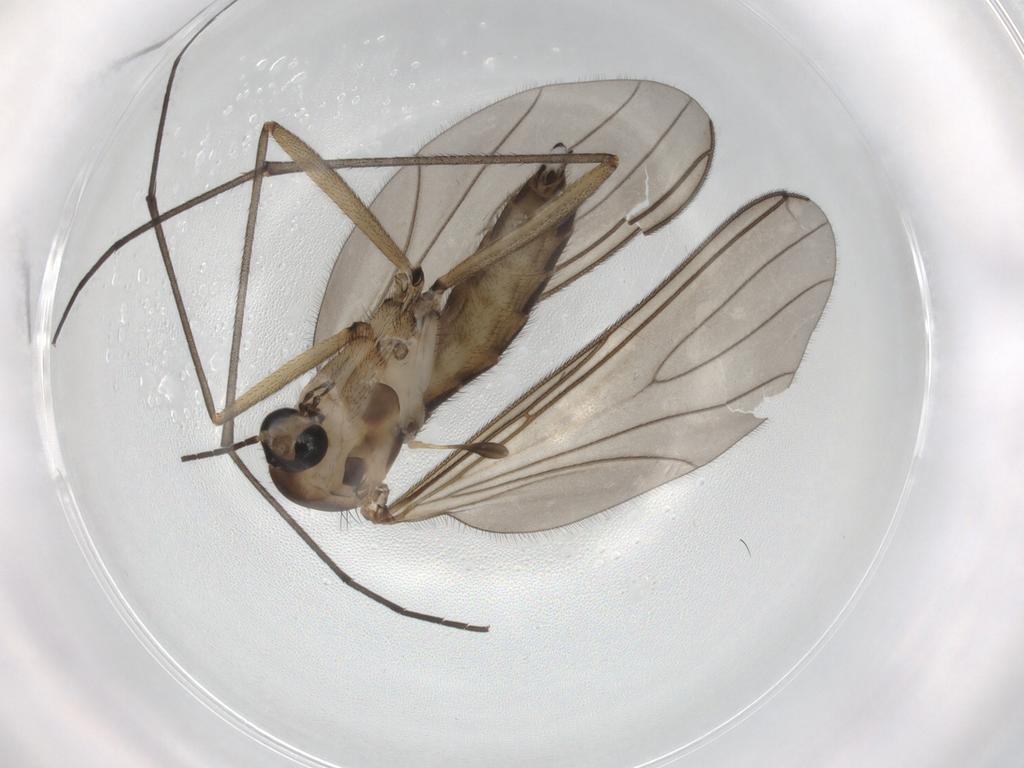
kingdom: Animalia
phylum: Arthropoda
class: Insecta
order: Diptera
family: Sciaridae
